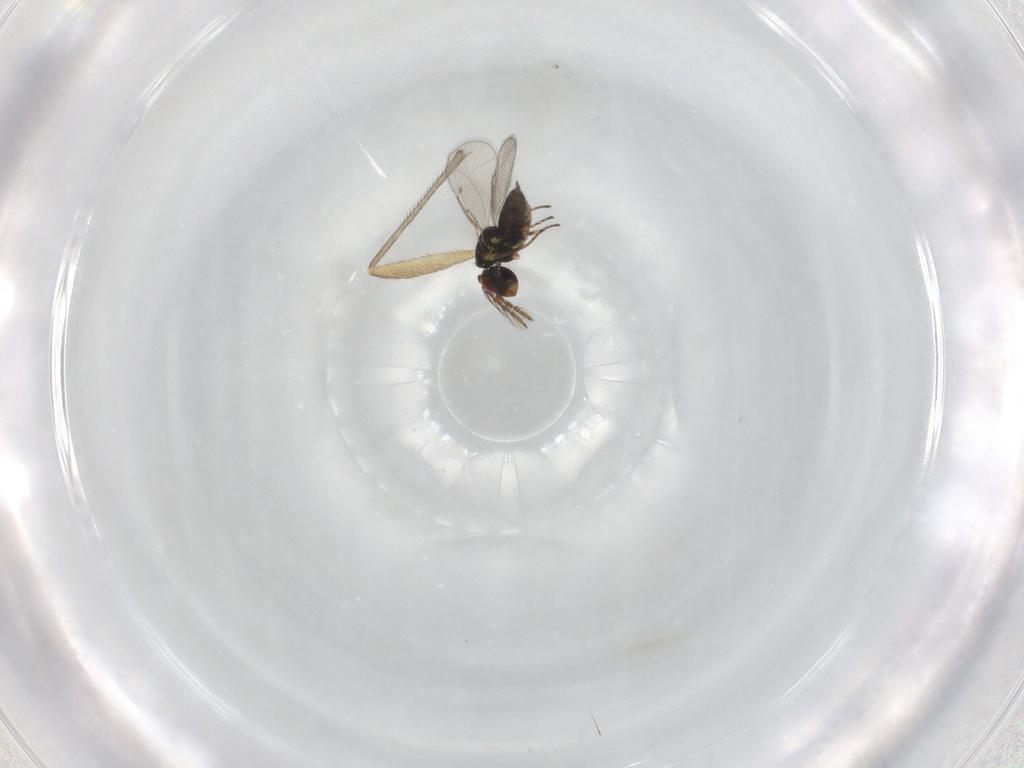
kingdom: Animalia
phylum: Arthropoda
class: Insecta
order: Hymenoptera
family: Eulophidae
